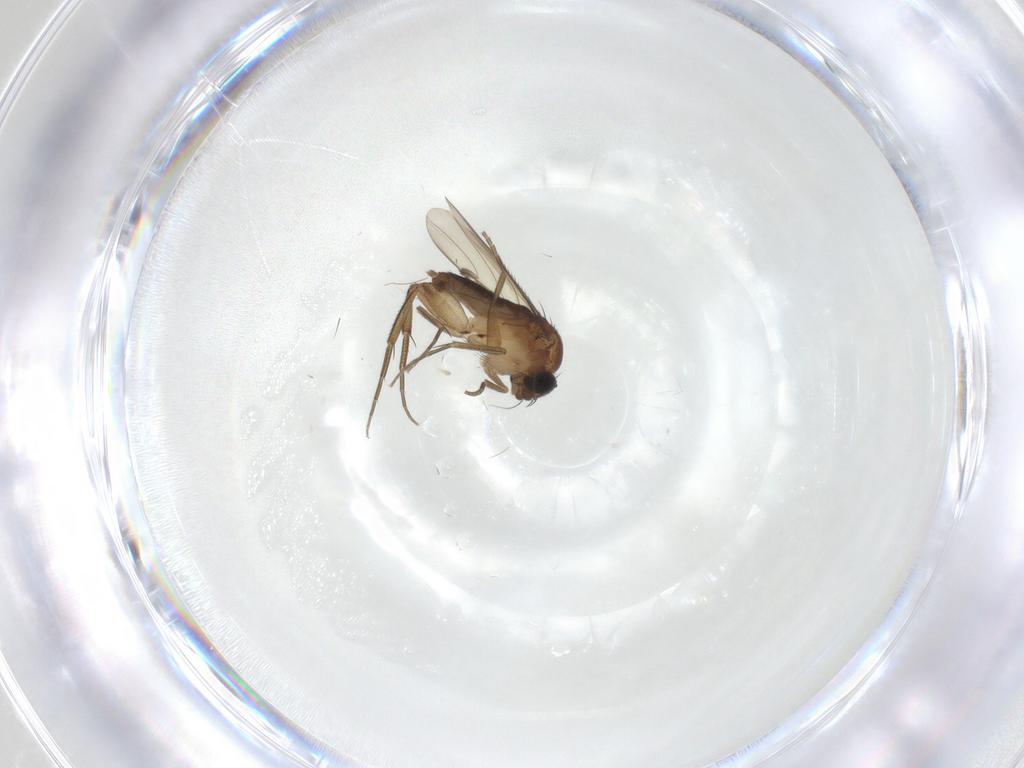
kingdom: Animalia
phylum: Arthropoda
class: Insecta
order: Diptera
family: Phoridae
